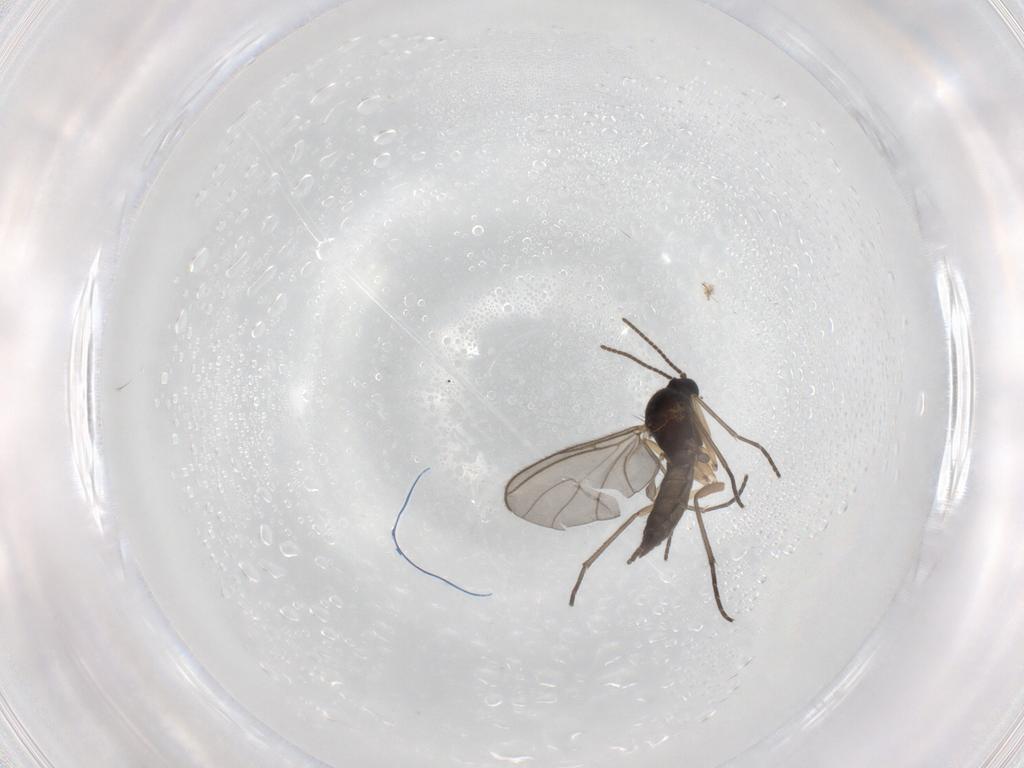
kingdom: Animalia
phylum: Arthropoda
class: Insecta
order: Diptera
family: Sciaridae
